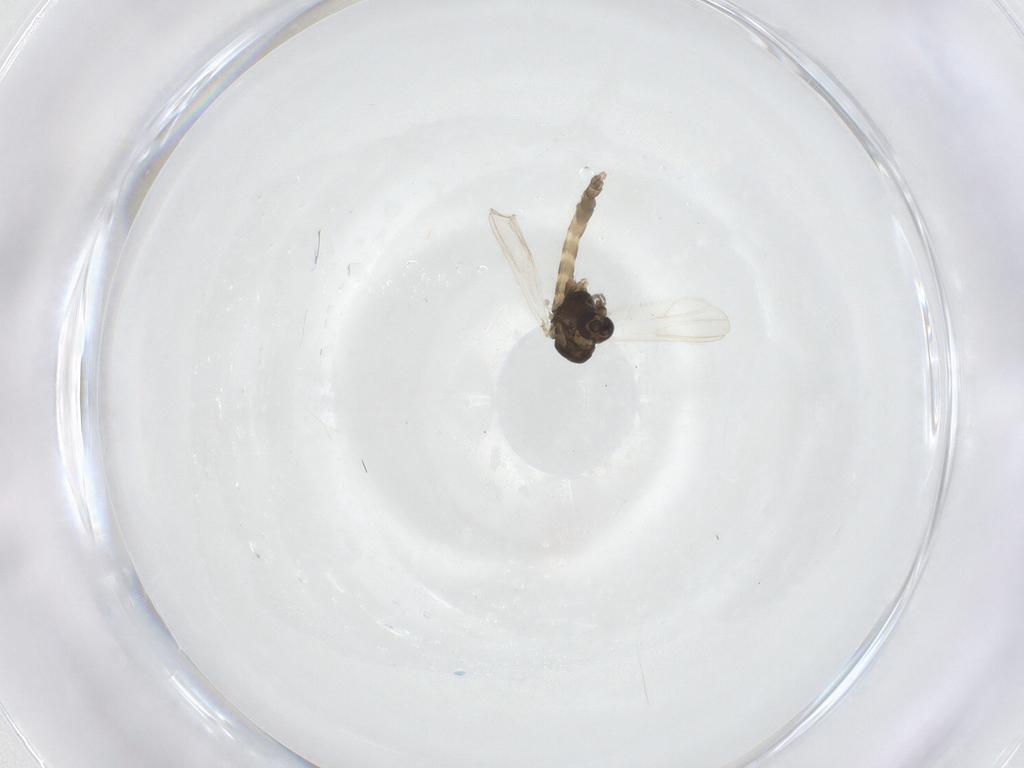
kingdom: Animalia
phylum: Arthropoda
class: Insecta
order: Diptera
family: Chironomidae
